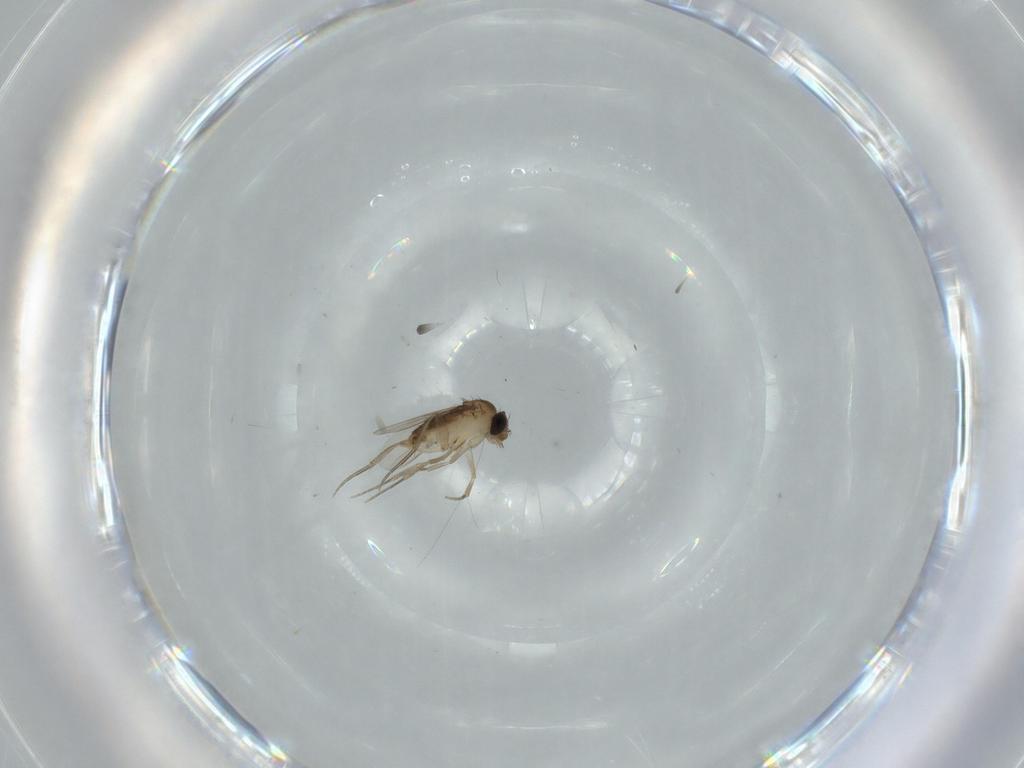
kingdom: Animalia
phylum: Arthropoda
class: Insecta
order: Diptera
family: Phoridae
